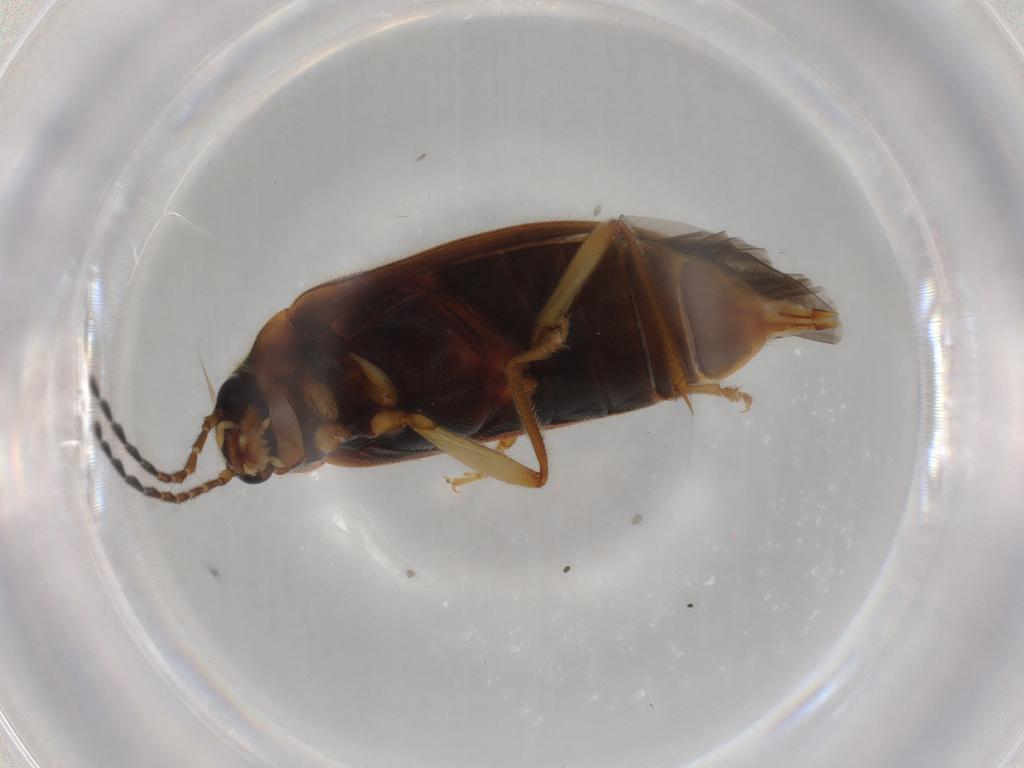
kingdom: Animalia
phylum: Arthropoda
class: Insecta
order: Coleoptera
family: Ptilodactylidae
